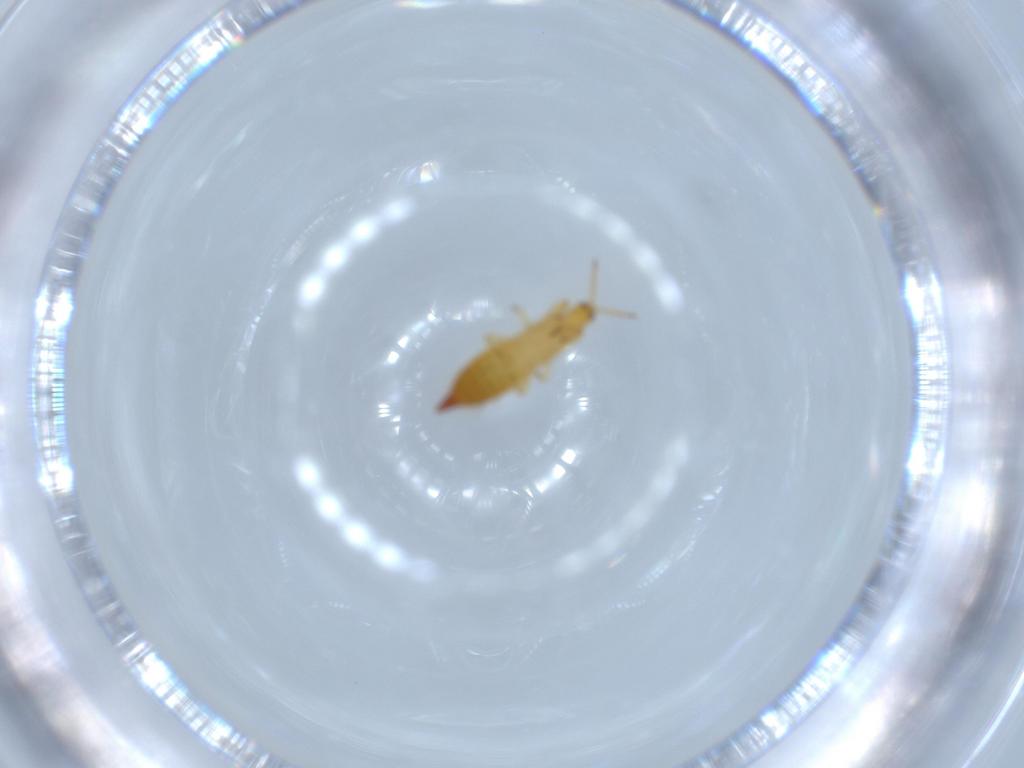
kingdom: Animalia
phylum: Arthropoda
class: Insecta
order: Thysanoptera
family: Phlaeothripidae
